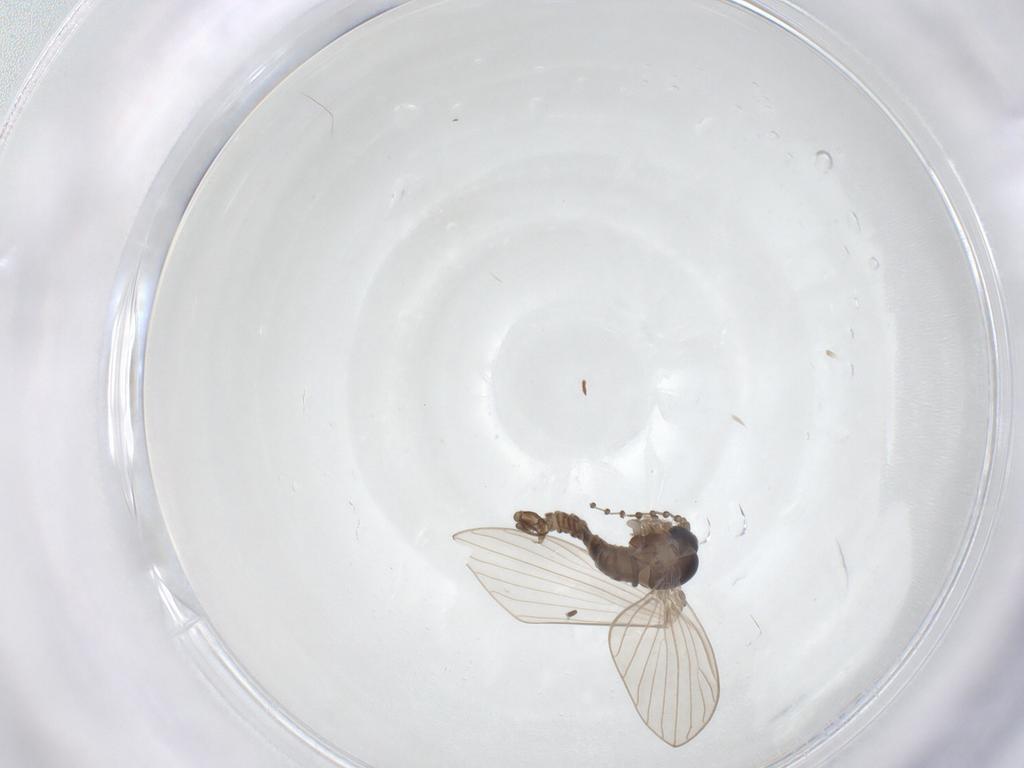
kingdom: Animalia
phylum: Arthropoda
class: Insecta
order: Diptera
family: Psychodidae
